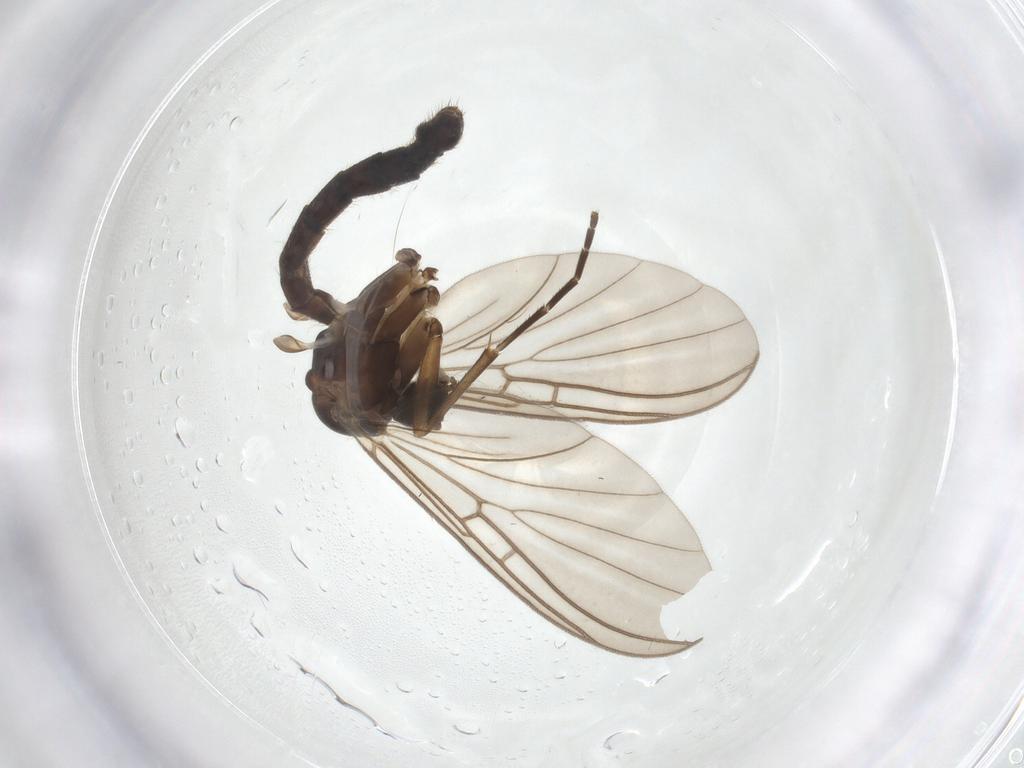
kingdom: Animalia
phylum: Arthropoda
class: Insecta
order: Diptera
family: Mycetophilidae
